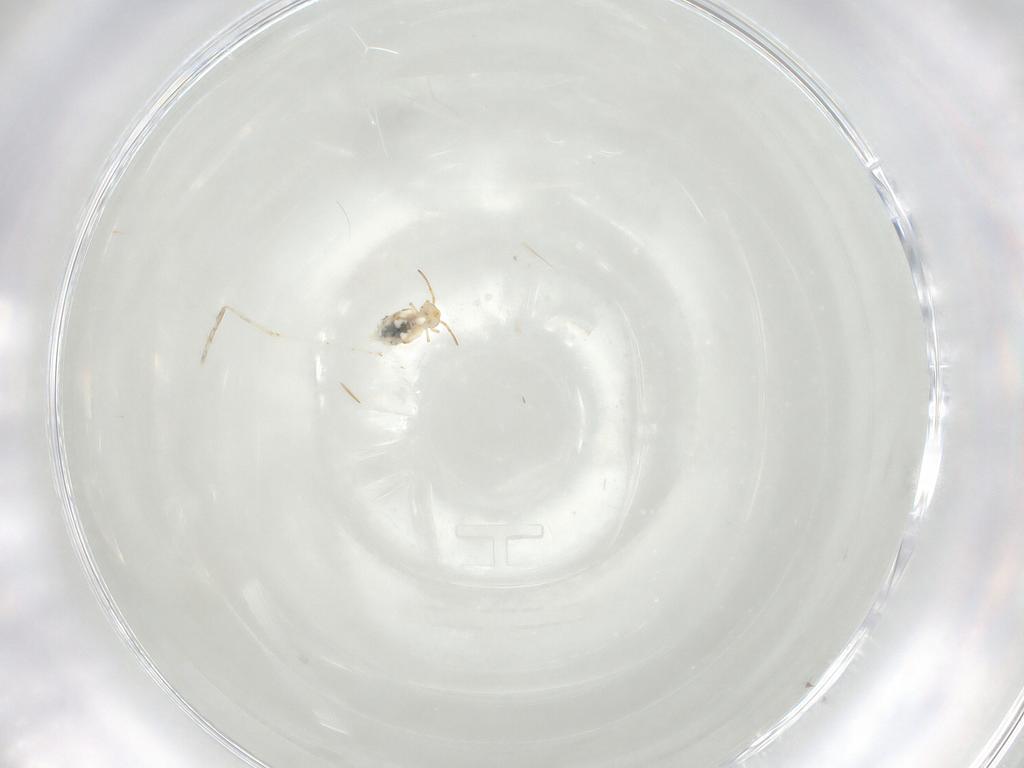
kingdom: Animalia
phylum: Arthropoda
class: Collembola
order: Symphypleona
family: Bourletiellidae
